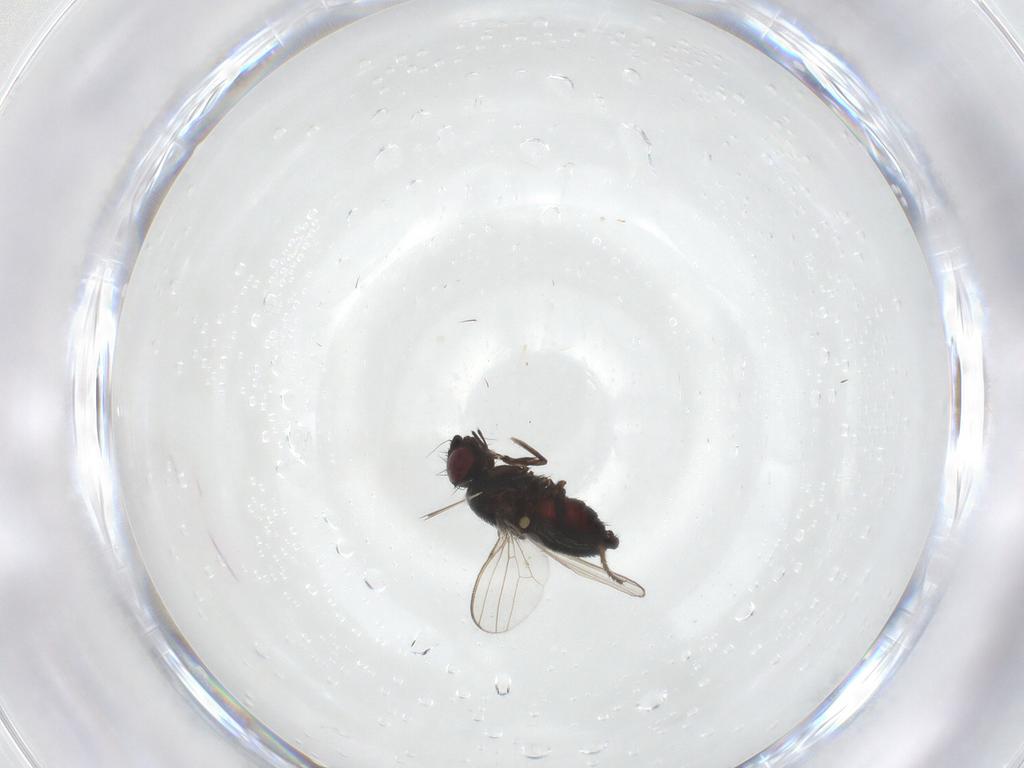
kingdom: Animalia
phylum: Arthropoda
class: Insecta
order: Diptera
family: Milichiidae
